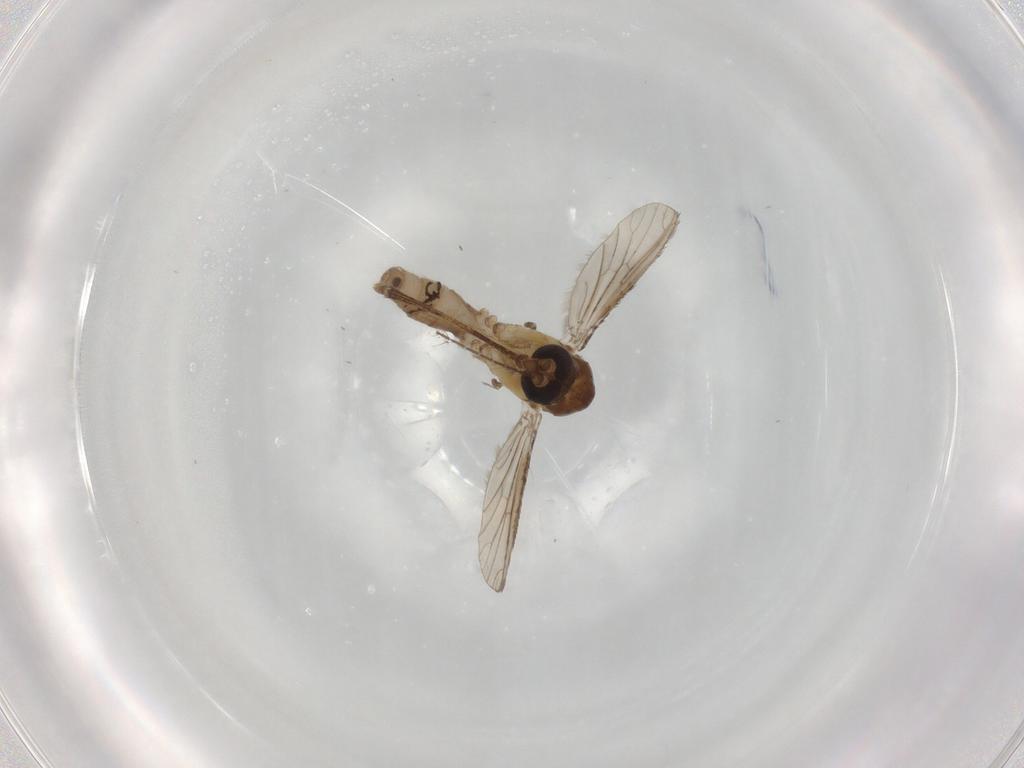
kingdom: Animalia
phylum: Arthropoda
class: Insecta
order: Diptera
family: Chironomidae
